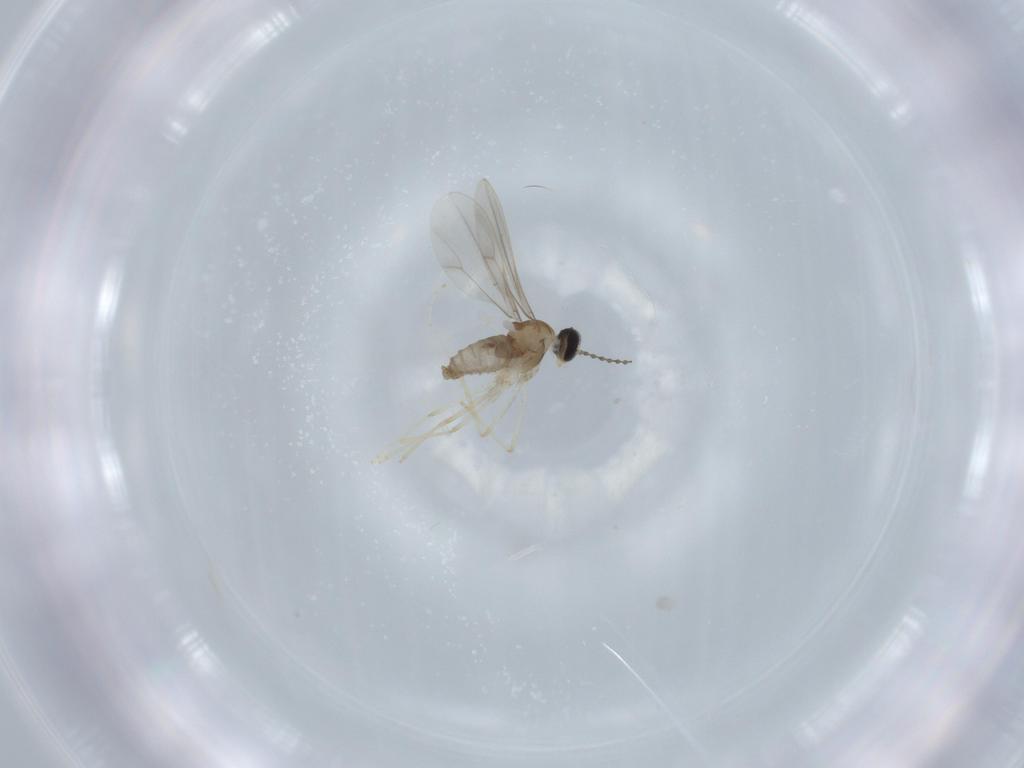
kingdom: Animalia
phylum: Arthropoda
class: Insecta
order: Diptera
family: Cecidomyiidae
